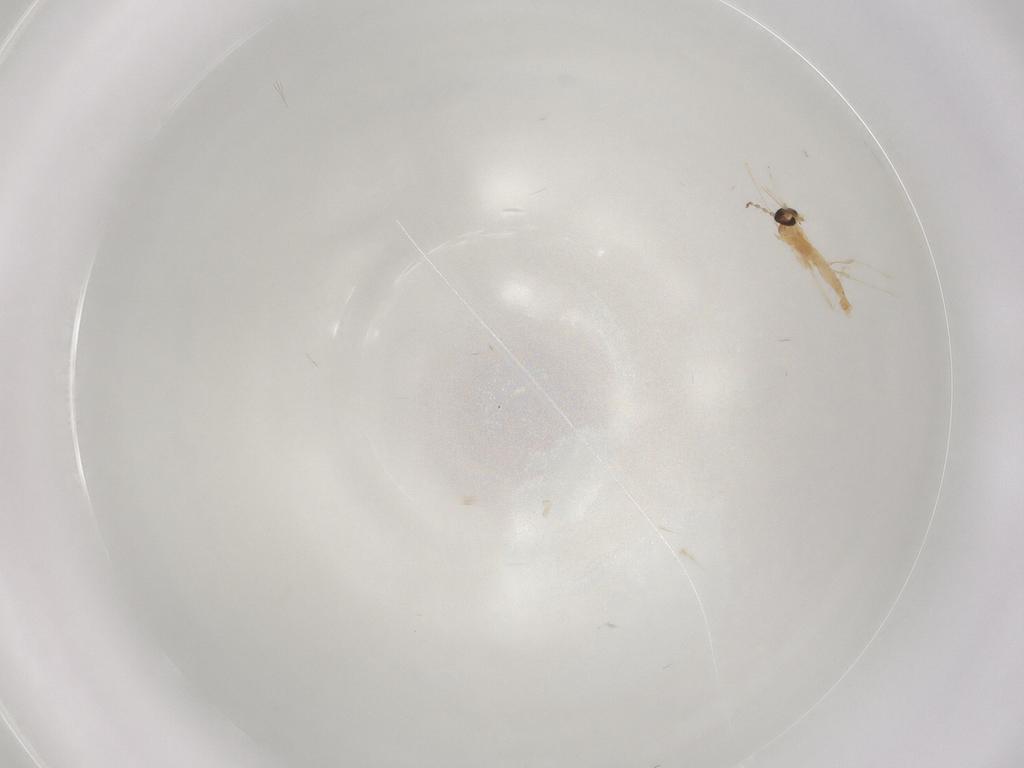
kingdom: Animalia
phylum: Arthropoda
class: Insecta
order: Diptera
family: Cecidomyiidae
